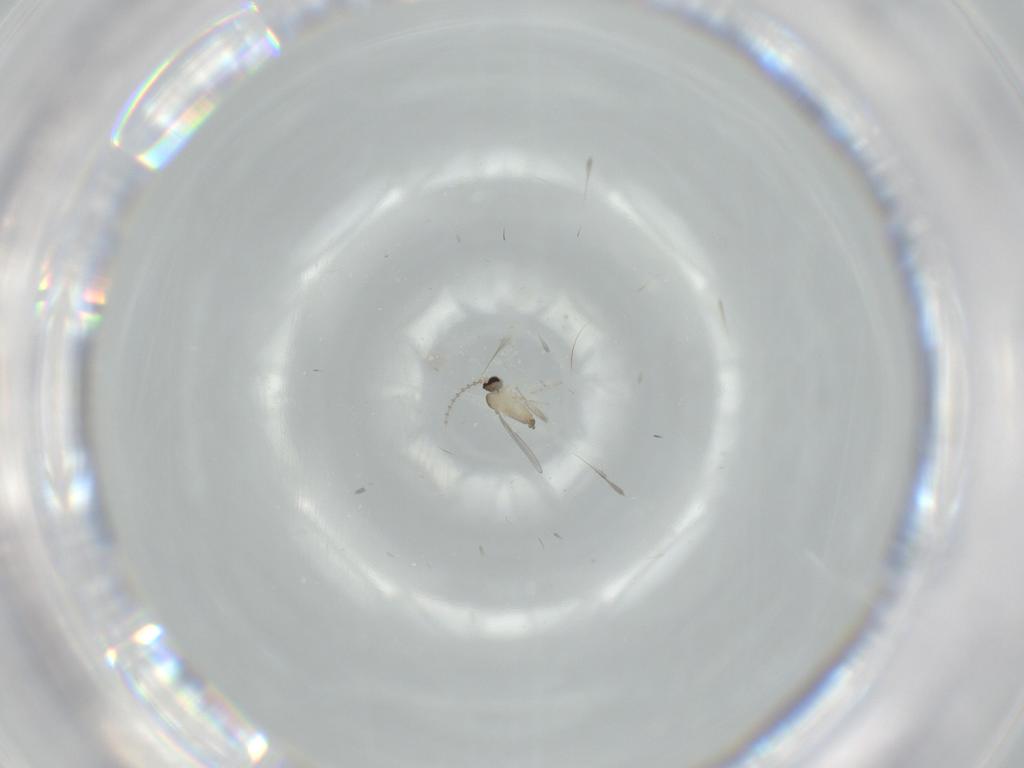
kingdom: Animalia
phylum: Arthropoda
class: Insecta
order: Diptera
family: Cecidomyiidae
